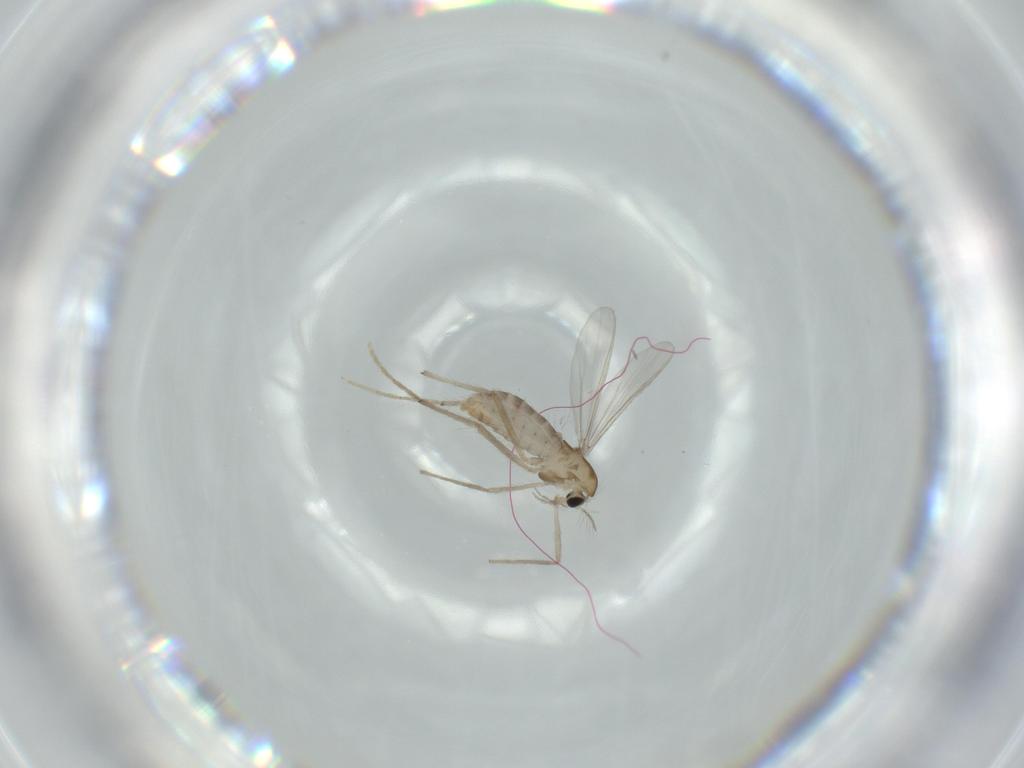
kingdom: Animalia
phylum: Arthropoda
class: Insecta
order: Diptera
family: Chironomidae
